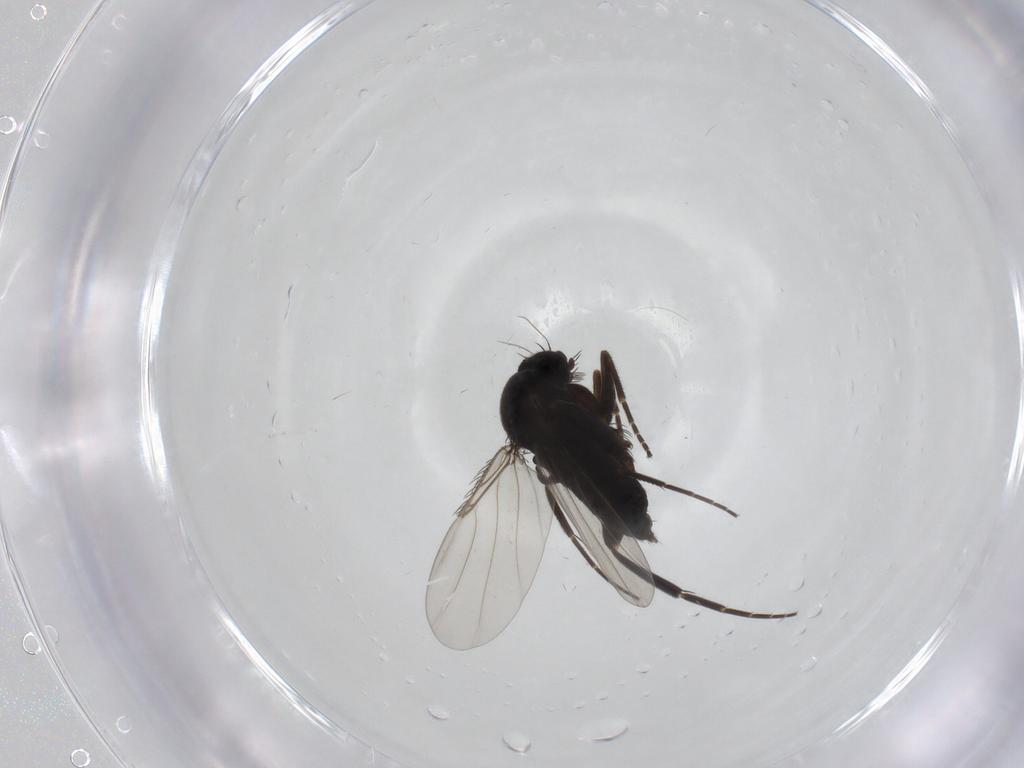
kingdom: Animalia
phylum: Arthropoda
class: Insecta
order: Diptera
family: Phoridae
